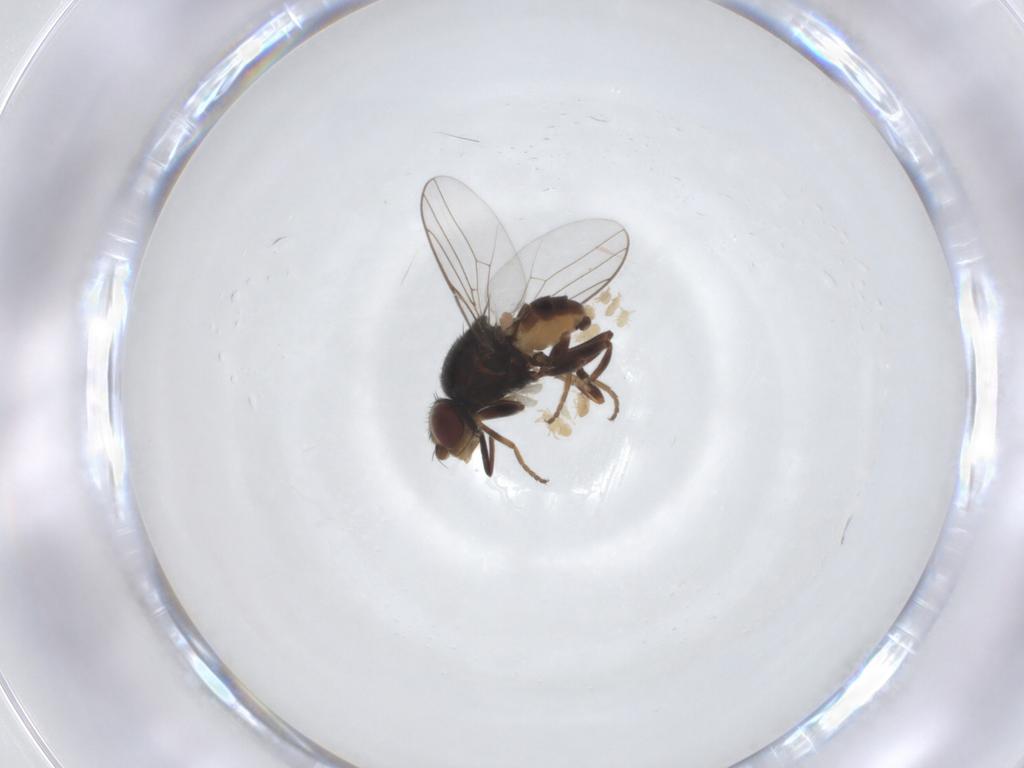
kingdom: Animalia
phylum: Arthropoda
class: Insecta
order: Diptera
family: Chloropidae
